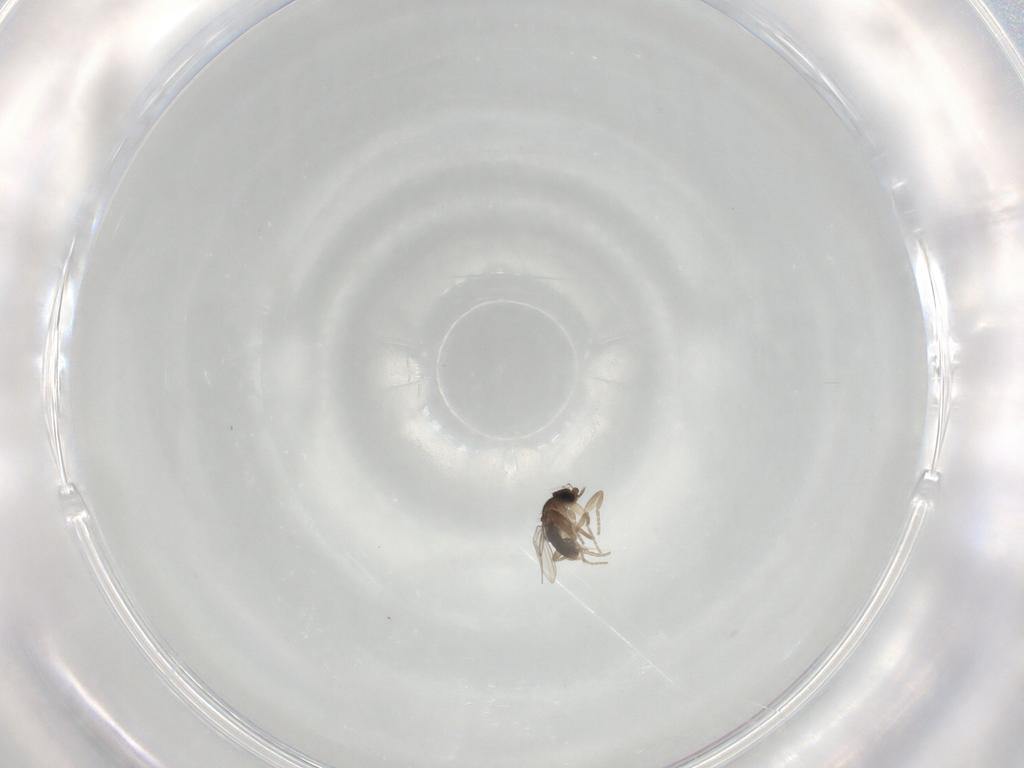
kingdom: Animalia
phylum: Arthropoda
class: Insecta
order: Diptera
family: Phoridae
